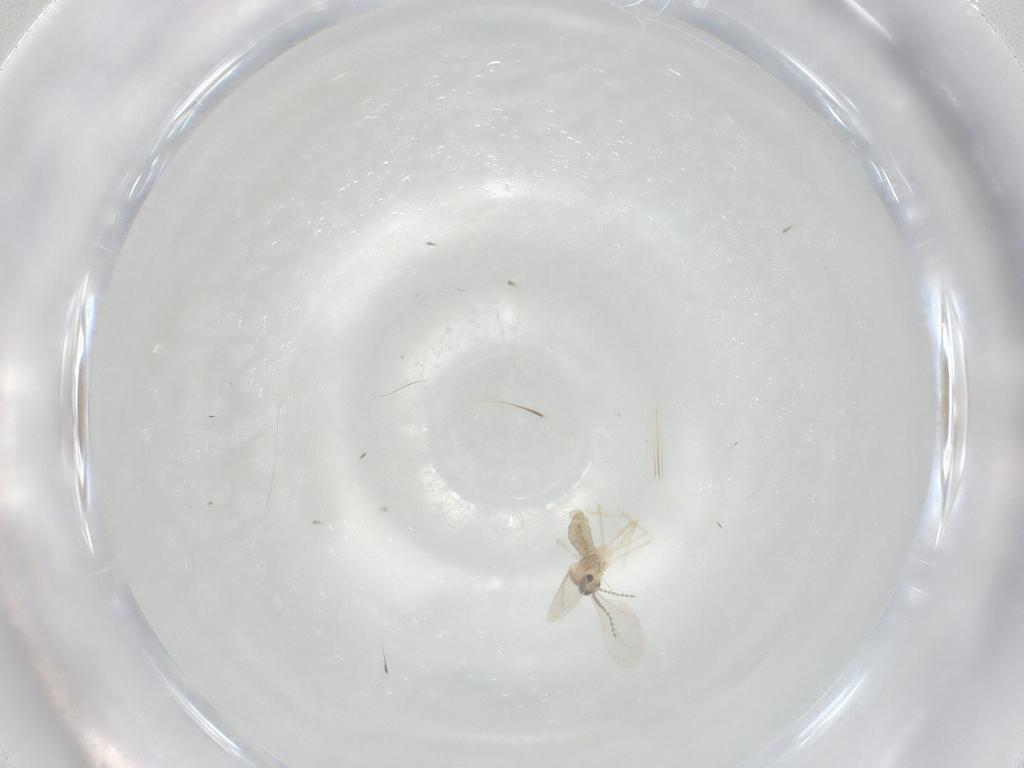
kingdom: Animalia
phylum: Arthropoda
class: Insecta
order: Diptera
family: Cecidomyiidae
